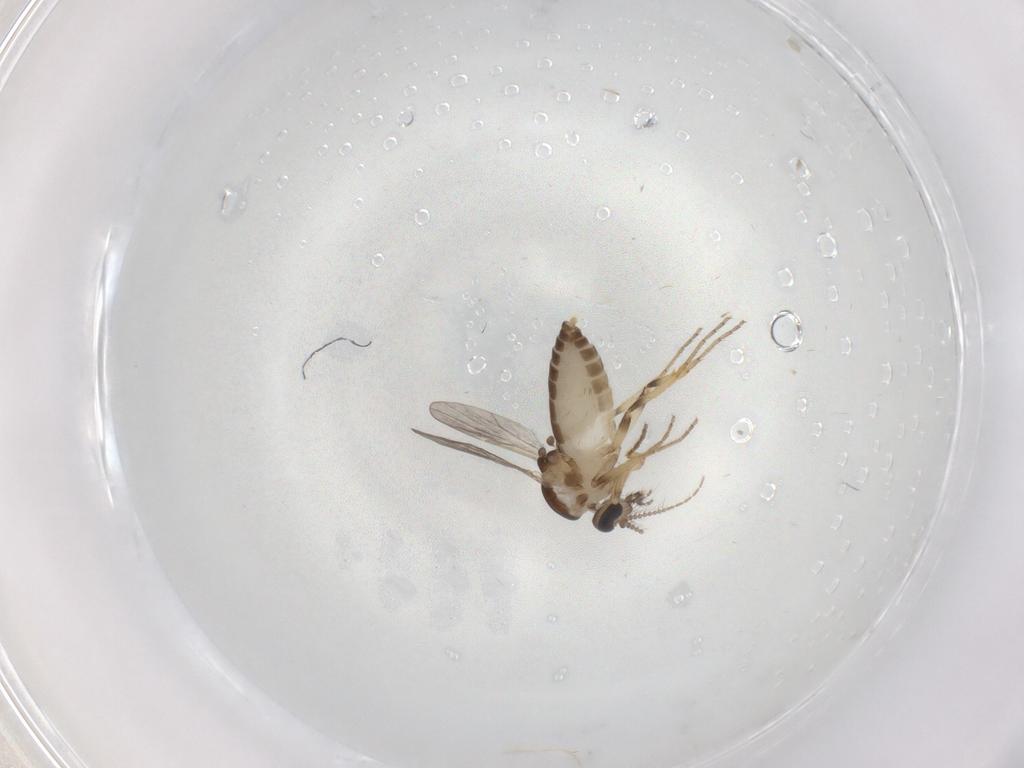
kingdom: Animalia
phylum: Arthropoda
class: Insecta
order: Diptera
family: Ceratopogonidae
